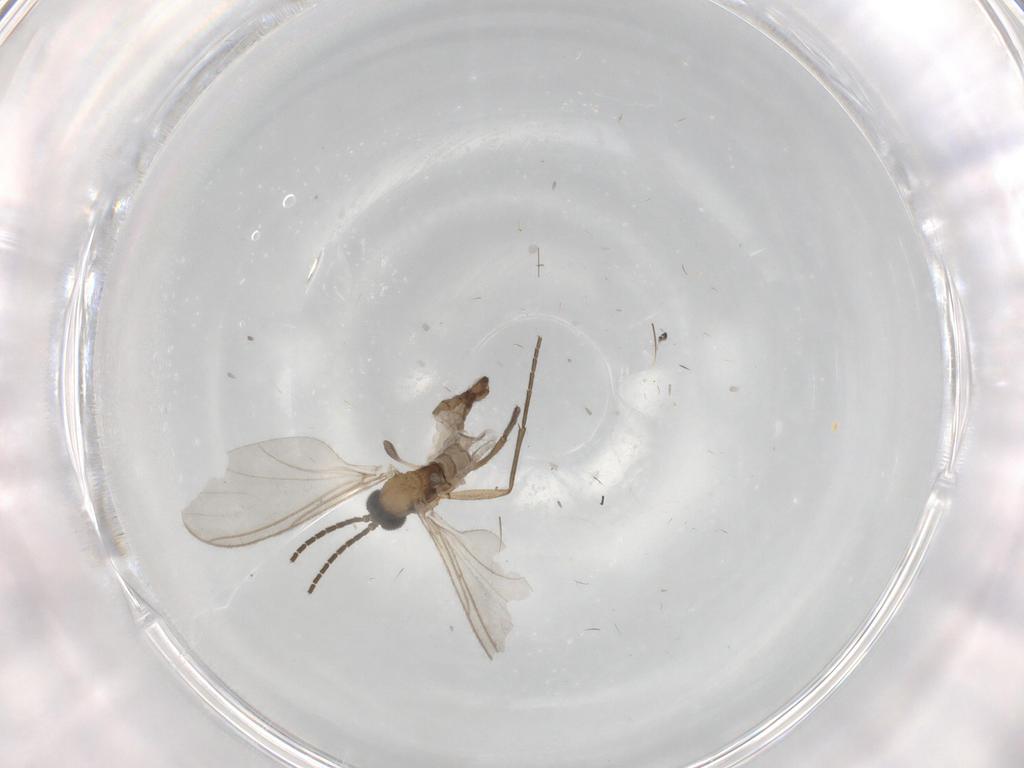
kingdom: Animalia
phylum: Arthropoda
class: Insecta
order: Diptera
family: Sciaridae
